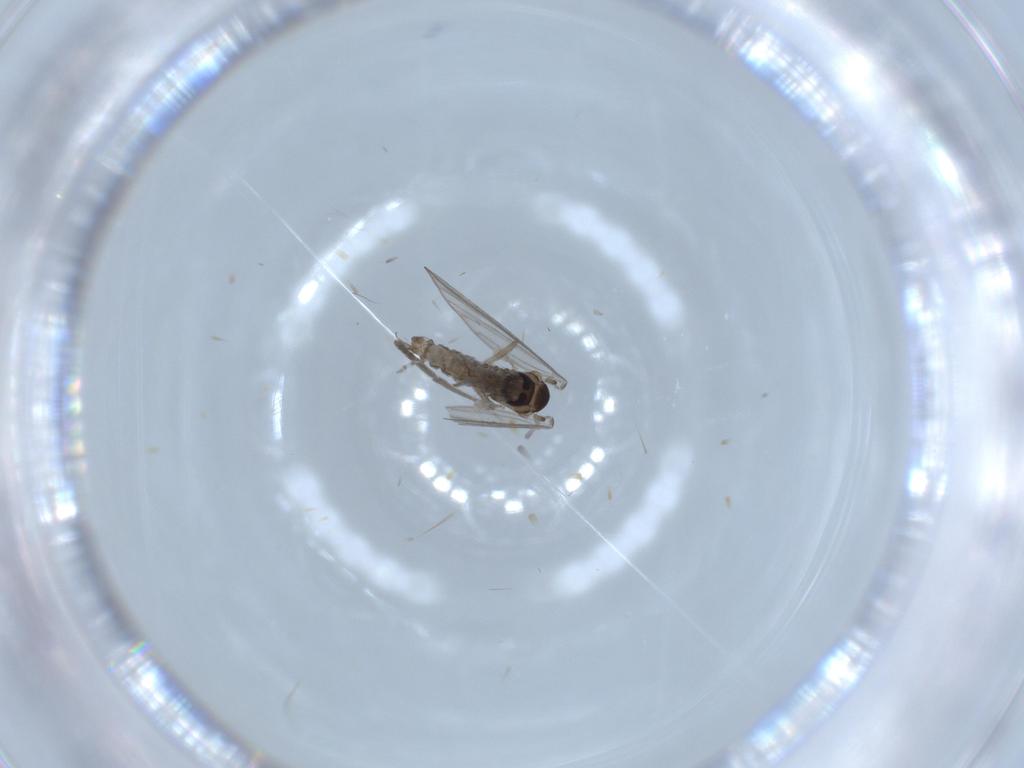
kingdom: Animalia
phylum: Arthropoda
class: Insecta
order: Diptera
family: Psychodidae
